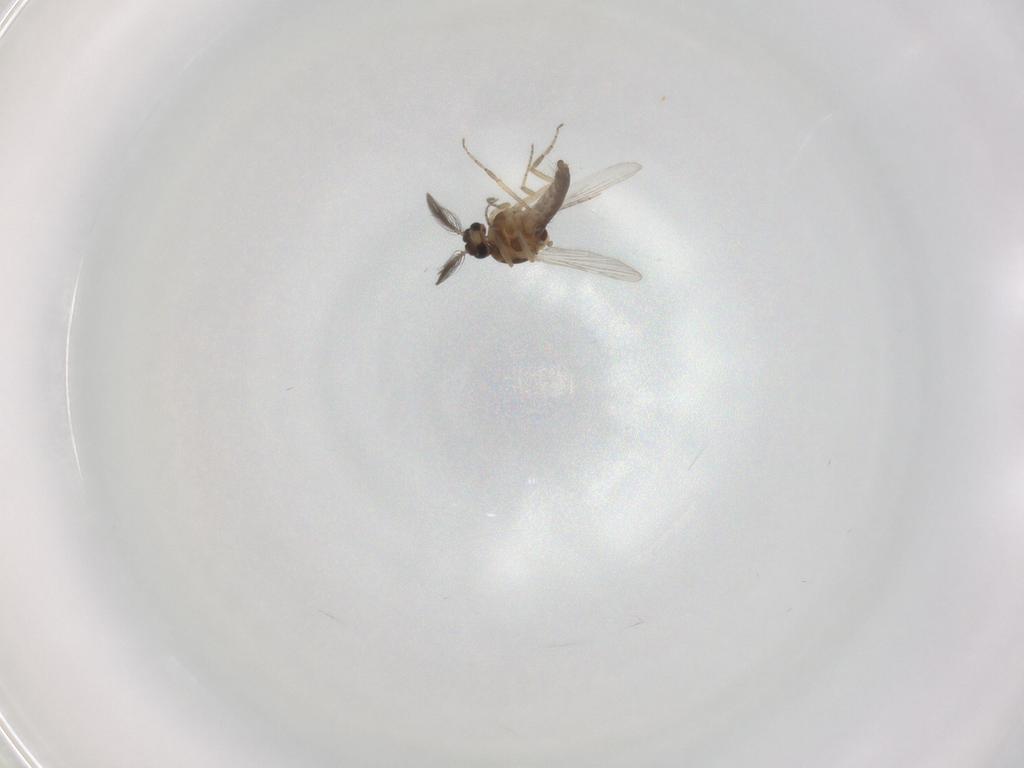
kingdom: Animalia
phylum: Arthropoda
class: Insecta
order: Diptera
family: Ceratopogonidae
